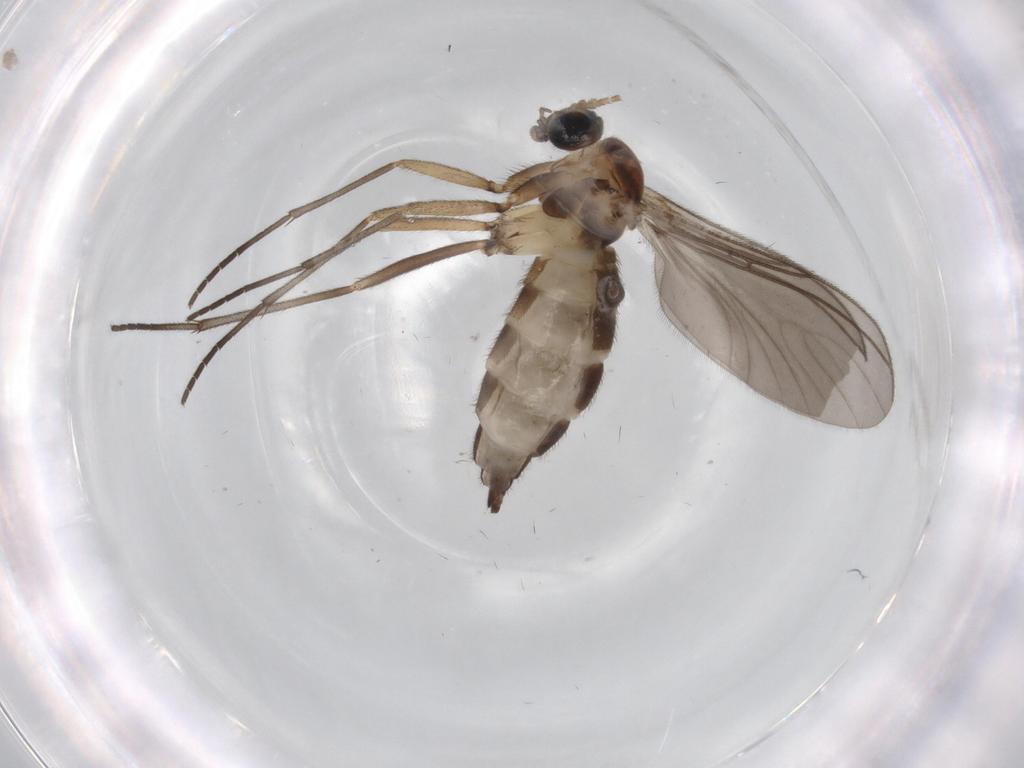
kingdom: Animalia
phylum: Arthropoda
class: Insecta
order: Diptera
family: Sciaridae
